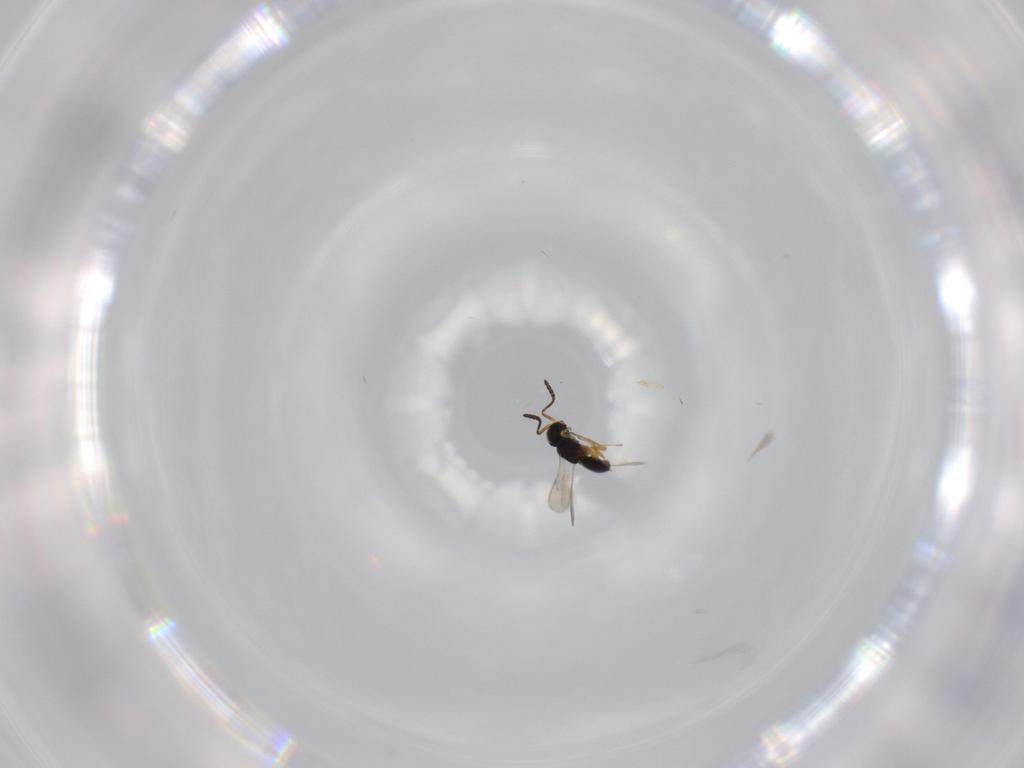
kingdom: Animalia
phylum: Arthropoda
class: Insecta
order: Hymenoptera
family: Scelionidae
